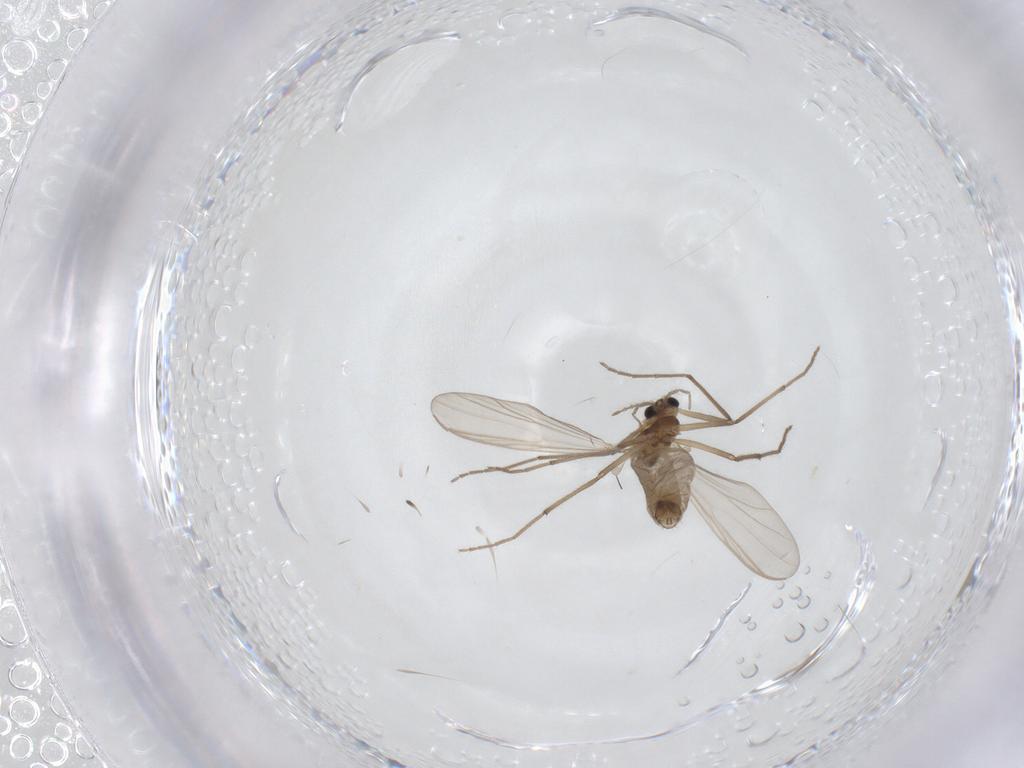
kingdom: Animalia
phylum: Arthropoda
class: Insecta
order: Diptera
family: Chironomidae
